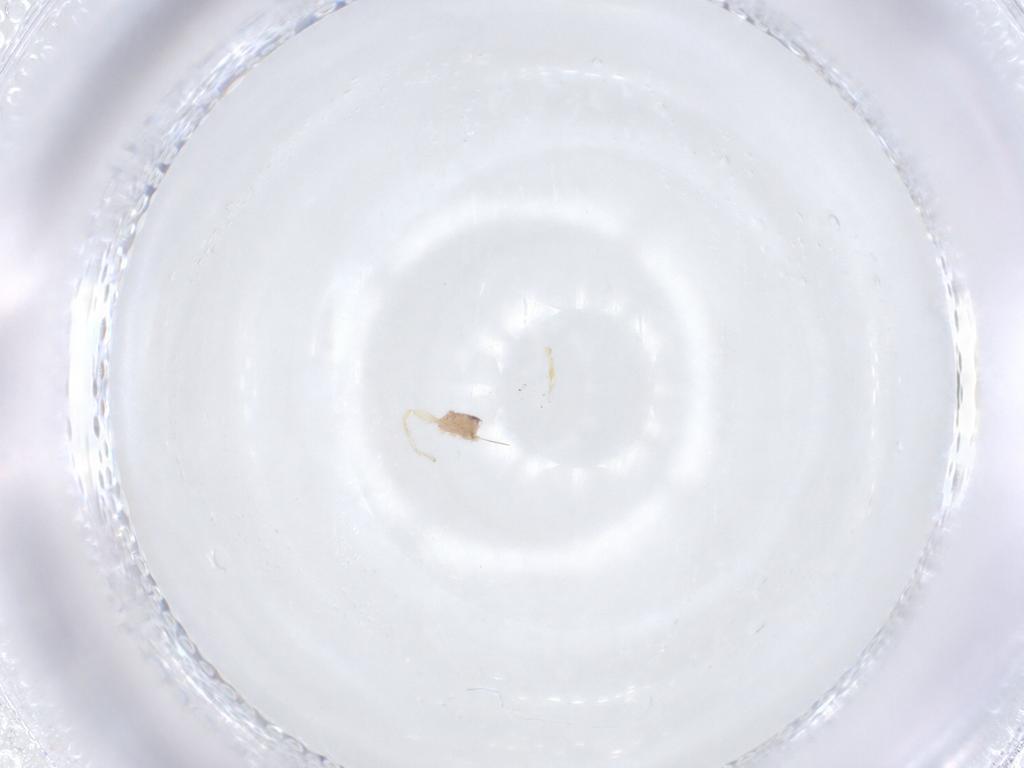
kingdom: Animalia
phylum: Arthropoda
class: Arachnida
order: Araneae
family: Idiopidae
